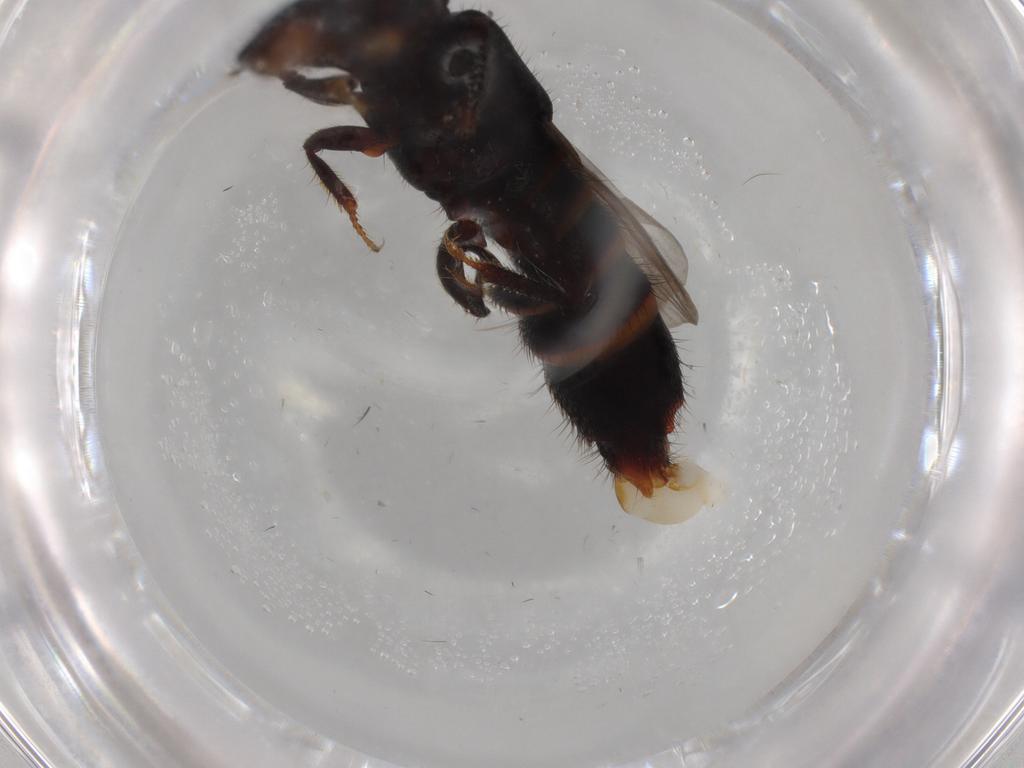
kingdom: Animalia
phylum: Arthropoda
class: Insecta
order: Coleoptera
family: Staphylinidae
